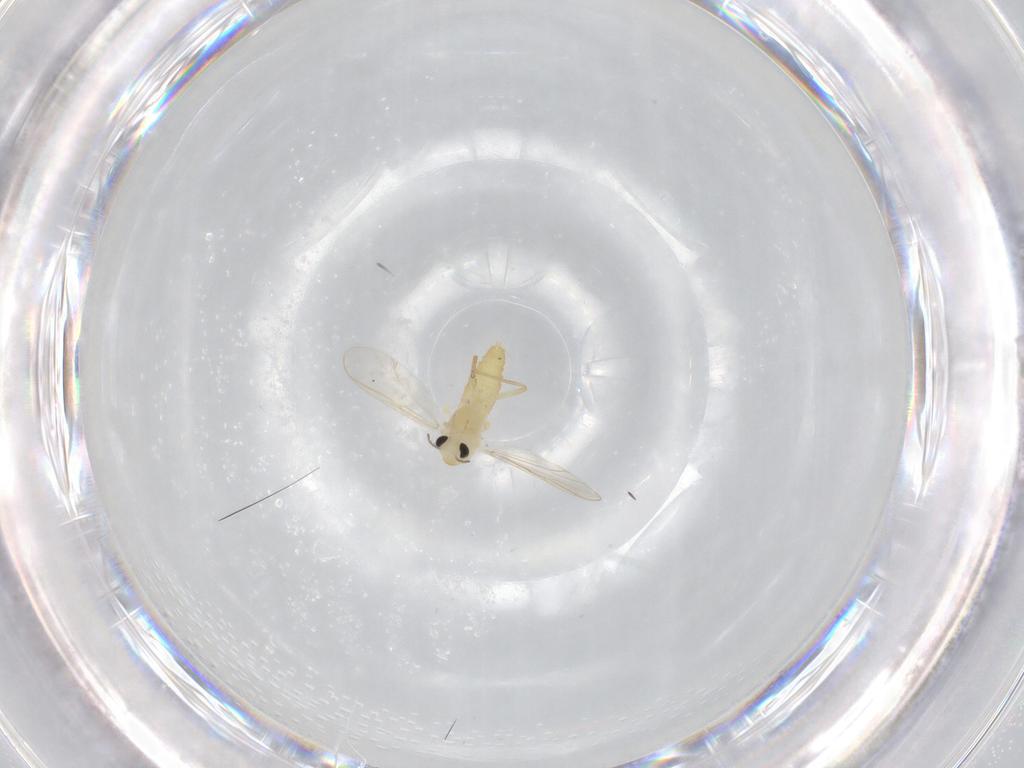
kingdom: Animalia
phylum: Arthropoda
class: Insecta
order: Diptera
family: Chironomidae
